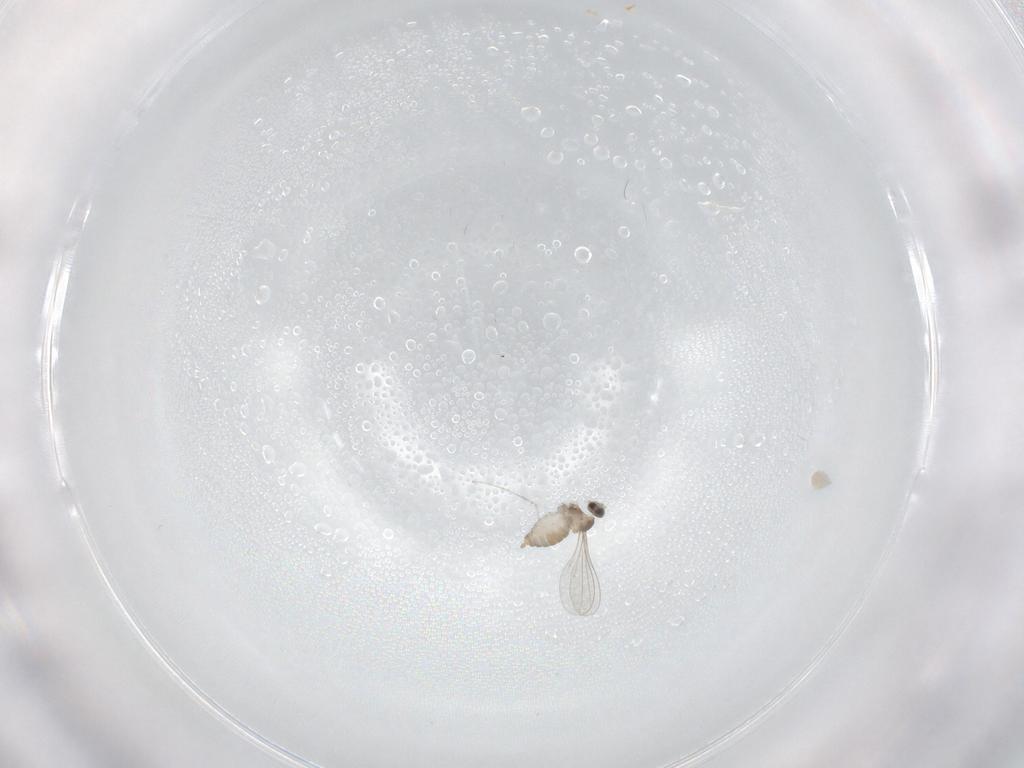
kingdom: Animalia
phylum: Arthropoda
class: Insecta
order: Diptera
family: Cecidomyiidae
